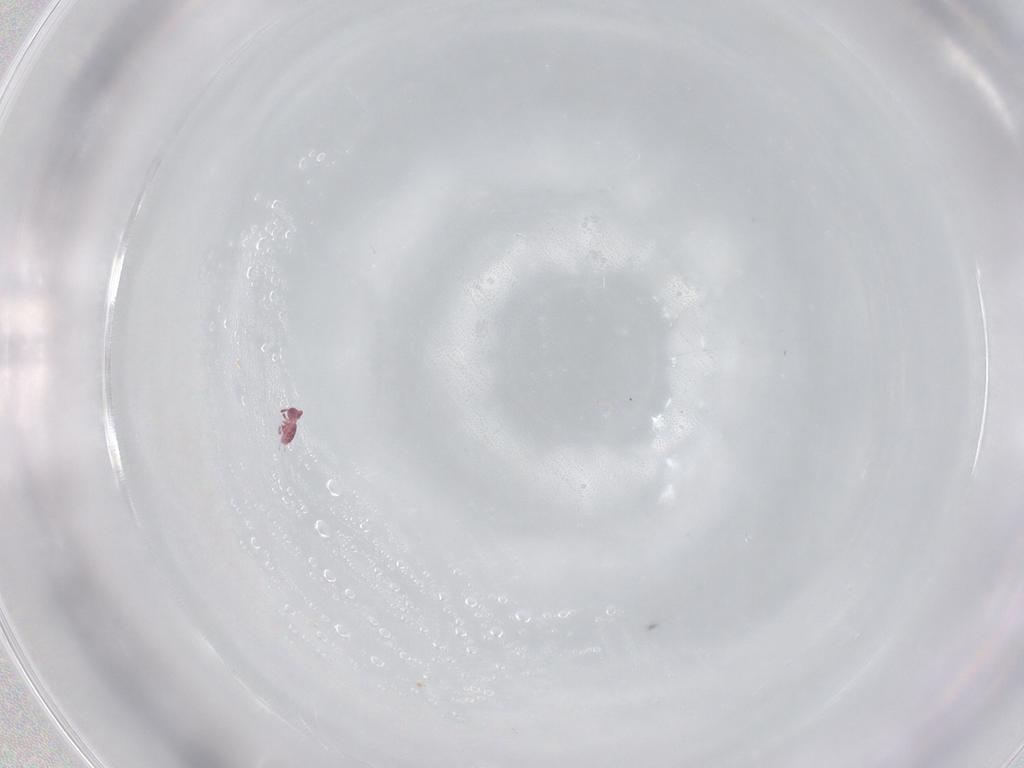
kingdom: Animalia
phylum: Arthropoda
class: Collembola
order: Symphypleona
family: Sminthurididae
